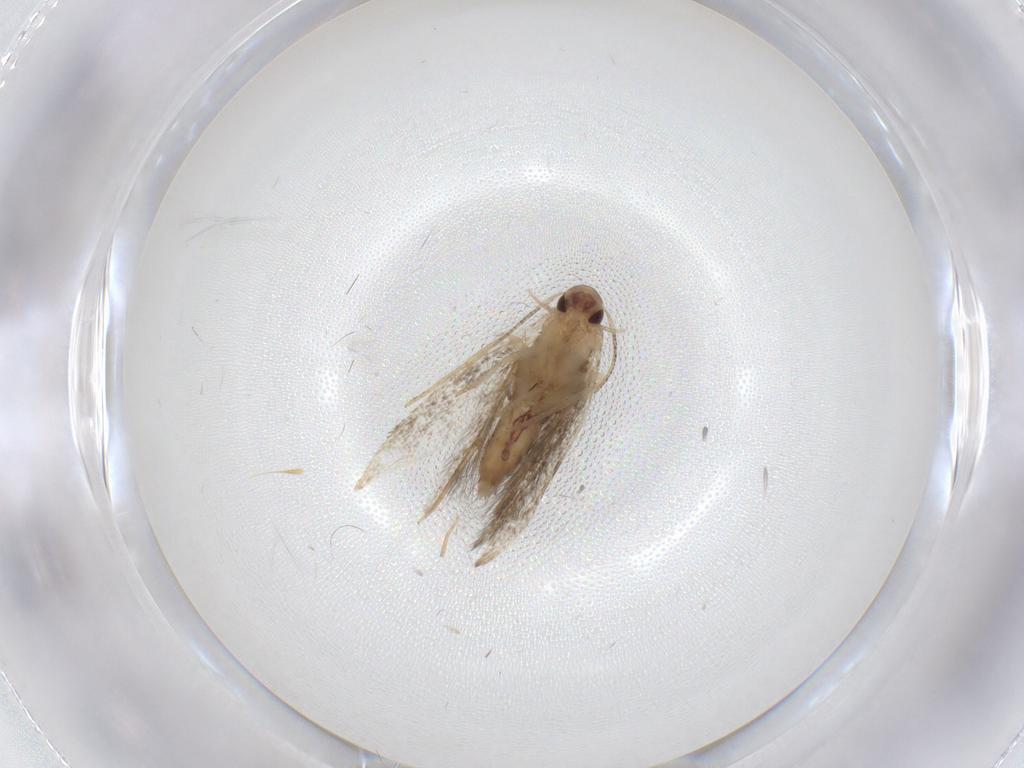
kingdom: Animalia
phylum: Arthropoda
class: Insecta
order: Lepidoptera
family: Gelechiidae
